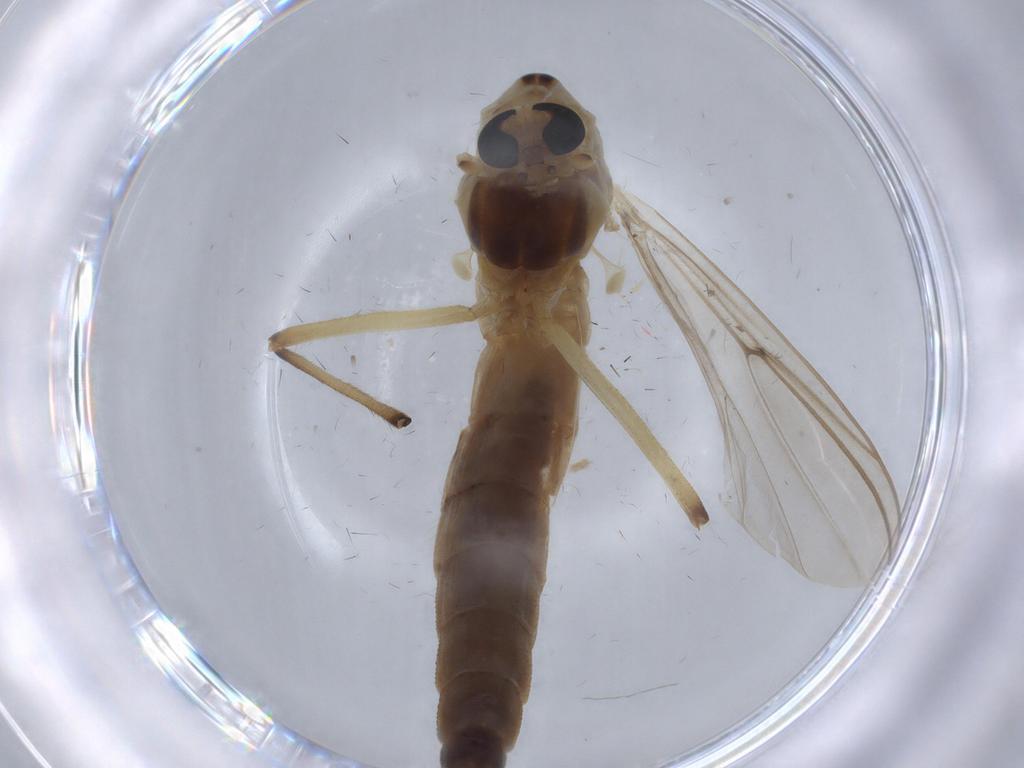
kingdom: Animalia
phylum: Arthropoda
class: Insecta
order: Diptera
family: Chironomidae
